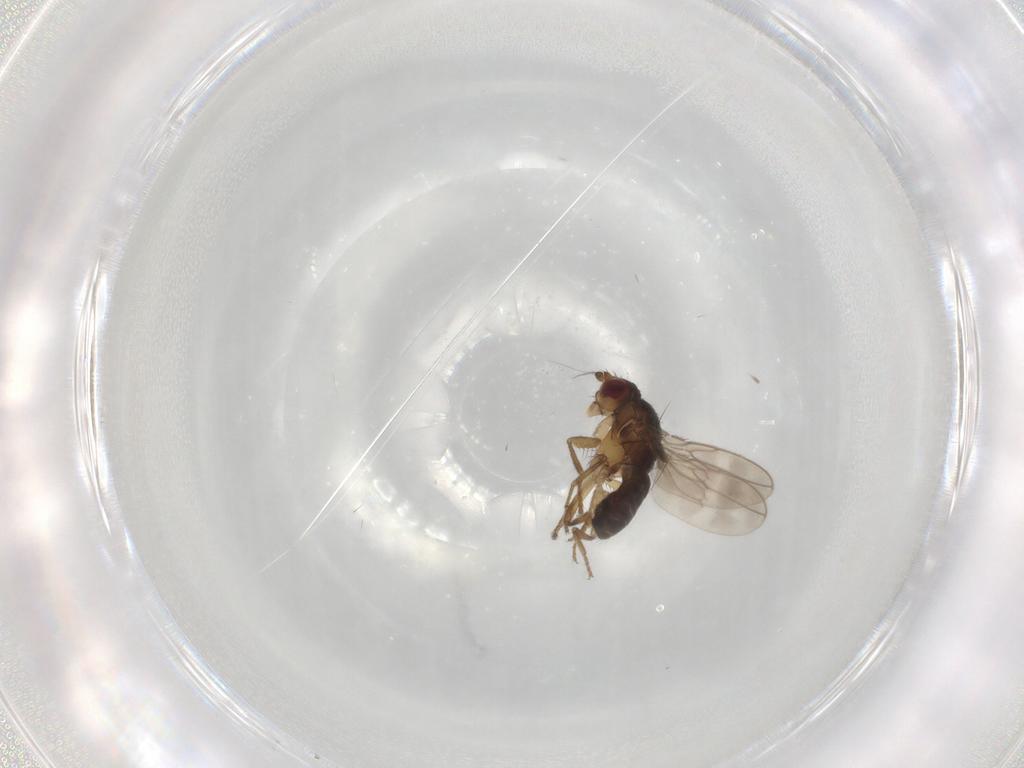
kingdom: Animalia
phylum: Arthropoda
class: Insecta
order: Diptera
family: Sphaeroceridae
